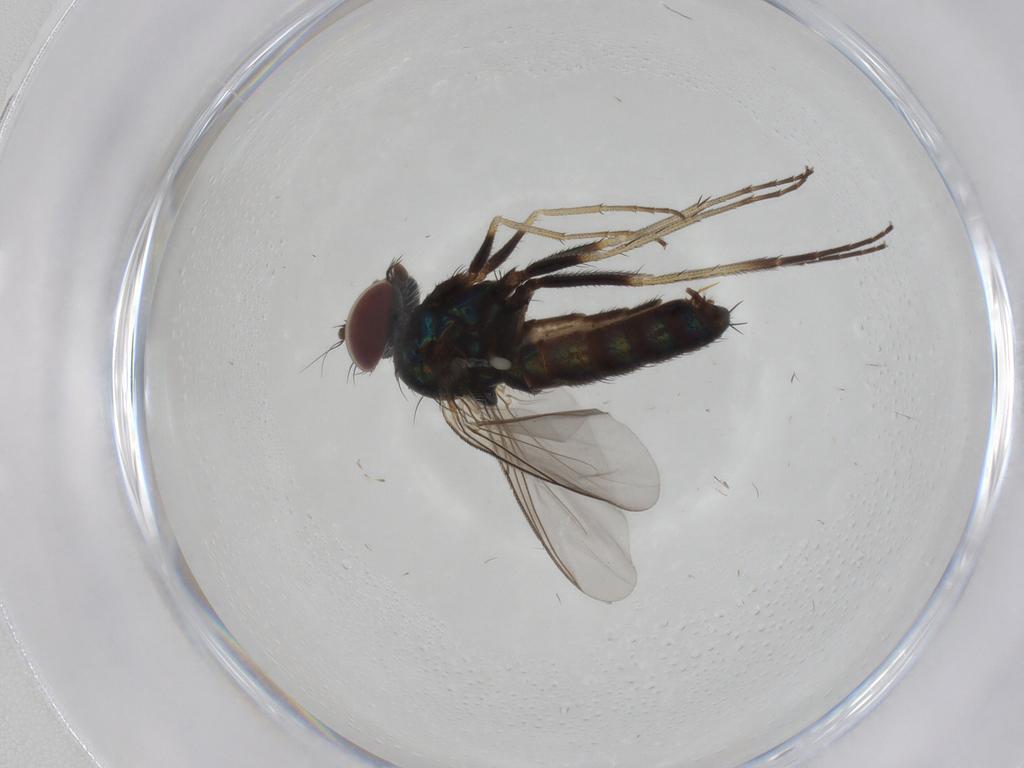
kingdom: Animalia
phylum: Arthropoda
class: Insecta
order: Diptera
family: Dolichopodidae
